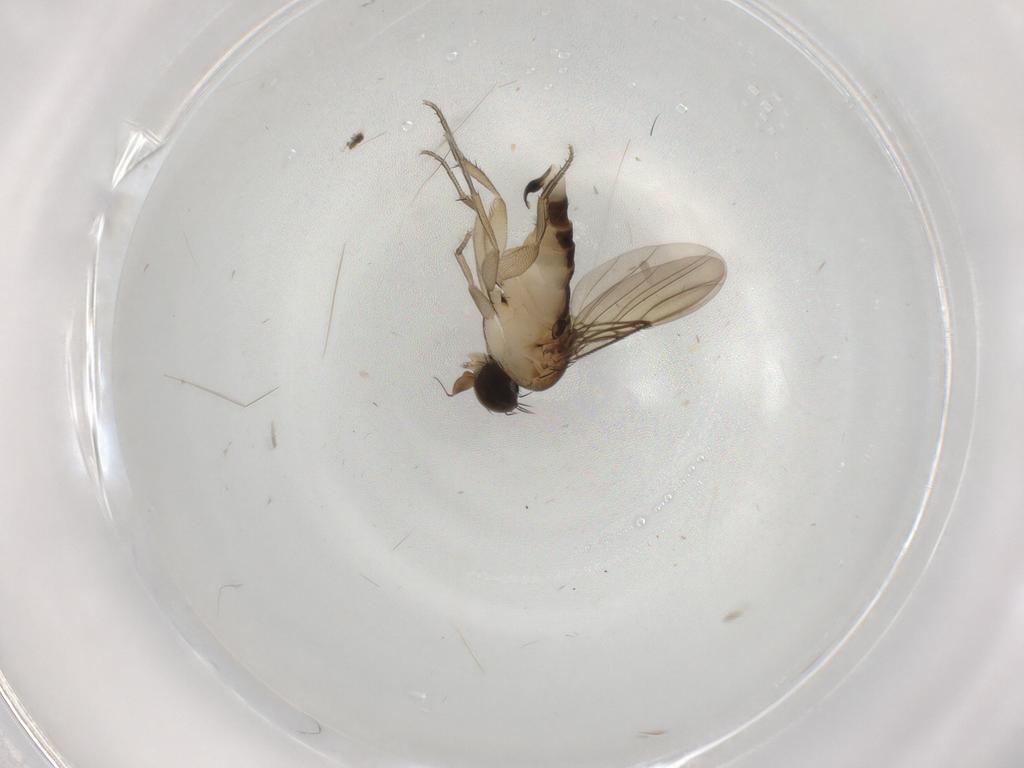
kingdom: Animalia
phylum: Arthropoda
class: Insecta
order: Diptera
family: Phoridae
